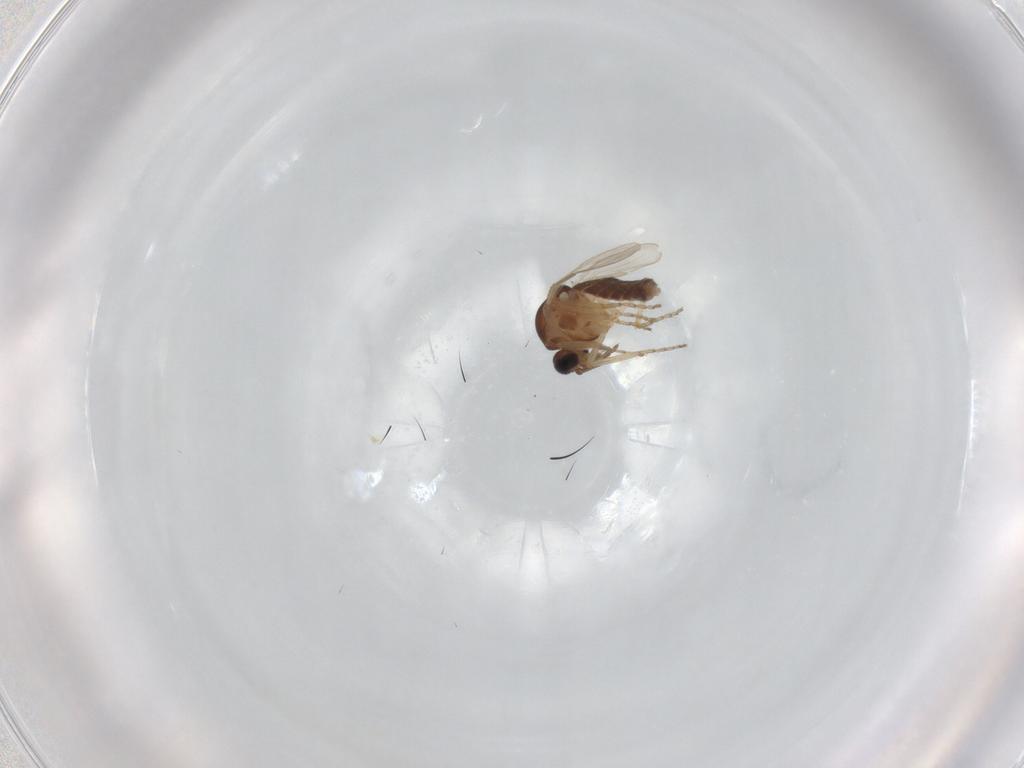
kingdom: Animalia
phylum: Arthropoda
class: Insecta
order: Diptera
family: Ceratopogonidae
